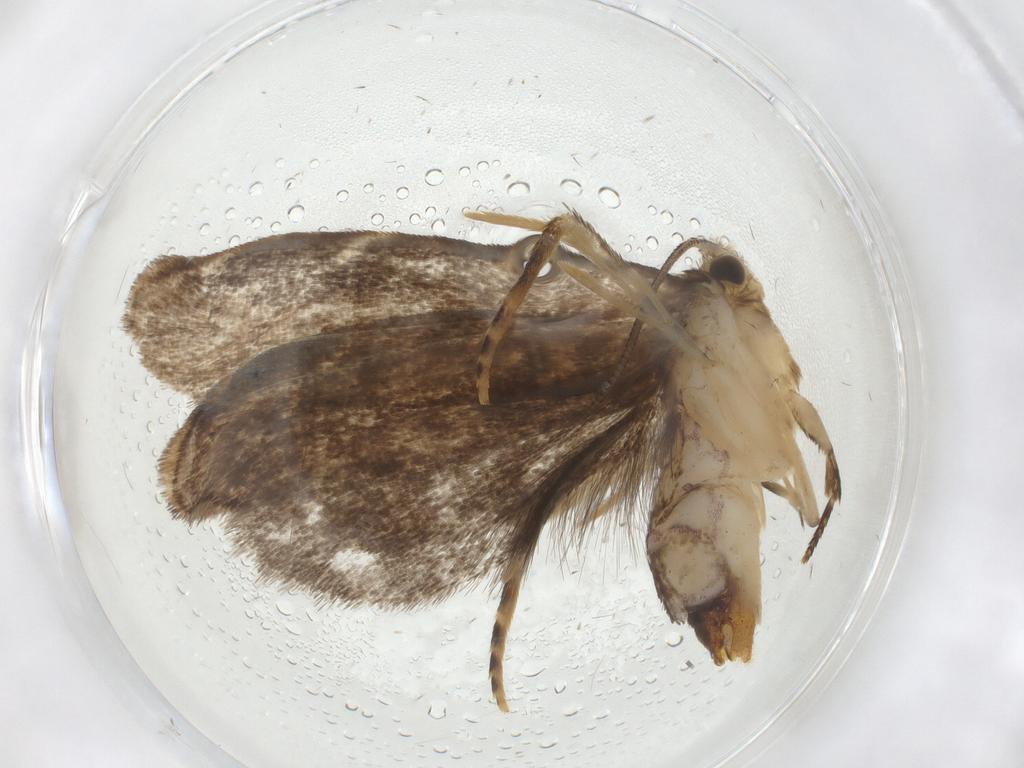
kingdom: Animalia
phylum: Arthropoda
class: Insecta
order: Lepidoptera
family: Dryadaulidae
